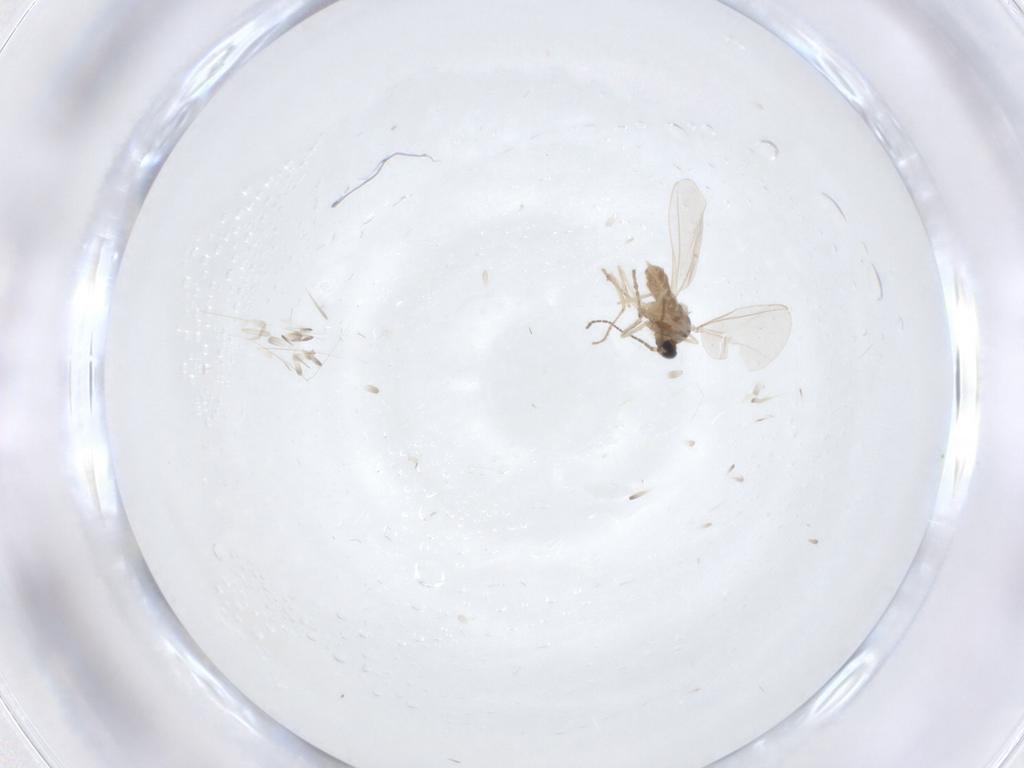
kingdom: Animalia
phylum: Arthropoda
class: Insecta
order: Diptera
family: Cecidomyiidae
